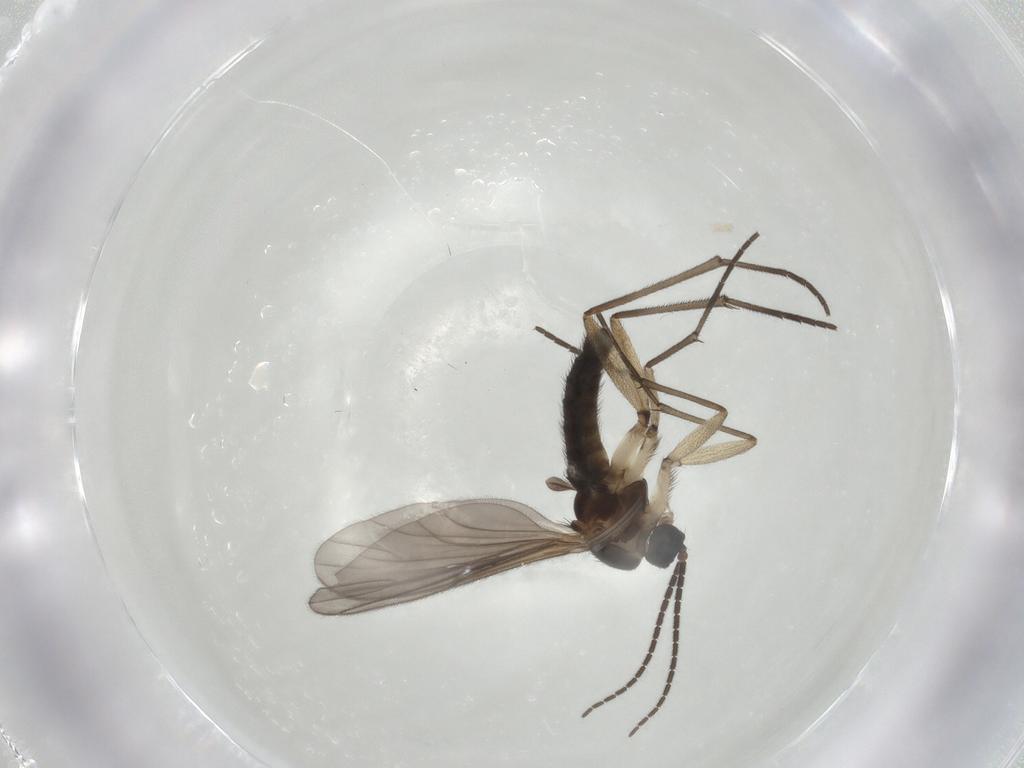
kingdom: Animalia
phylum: Arthropoda
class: Insecta
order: Diptera
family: Sciaridae
